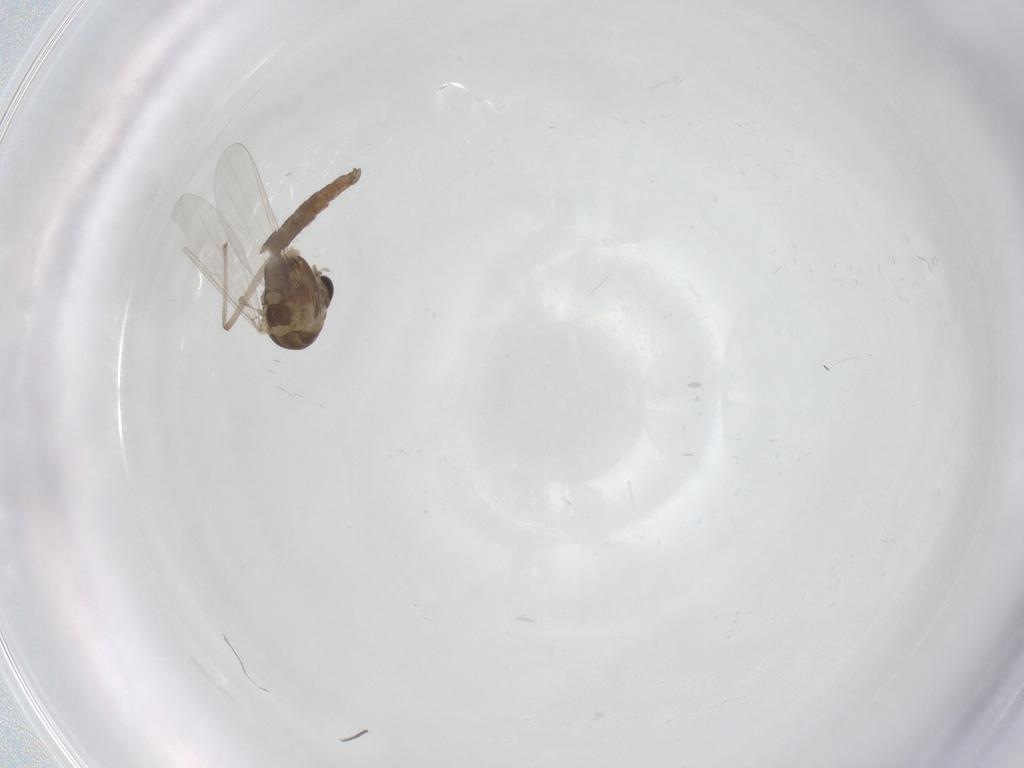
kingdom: Animalia
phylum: Arthropoda
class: Insecta
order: Diptera
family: Chironomidae
